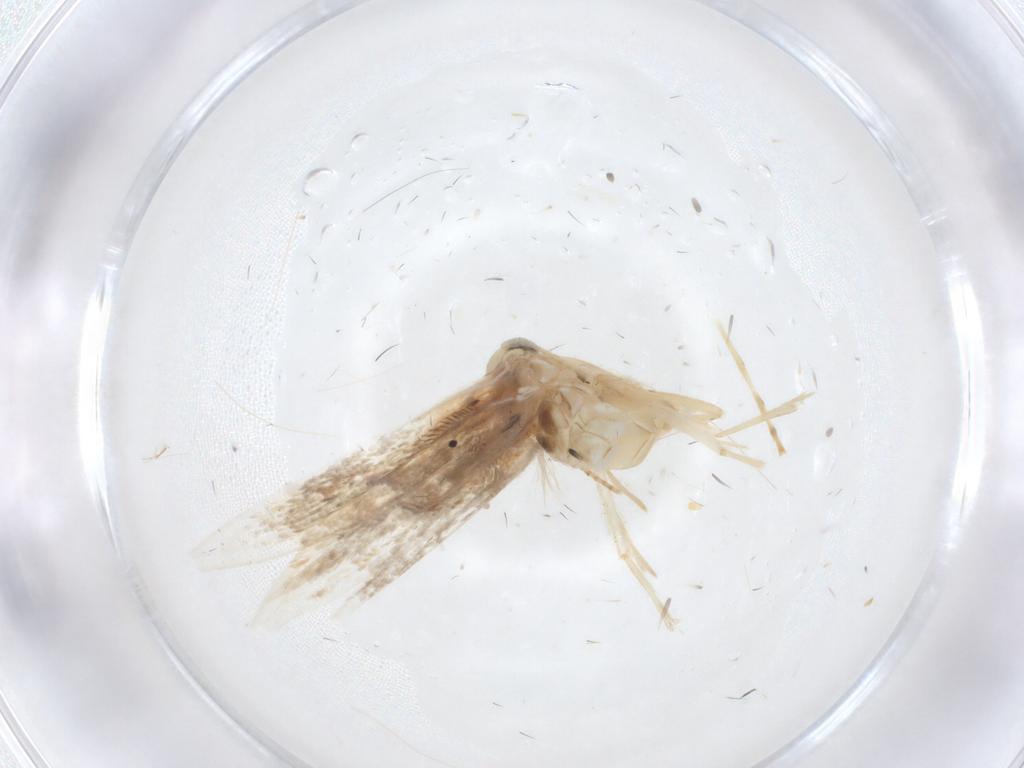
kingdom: Animalia
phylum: Arthropoda
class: Insecta
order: Lepidoptera
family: Gracillariidae
